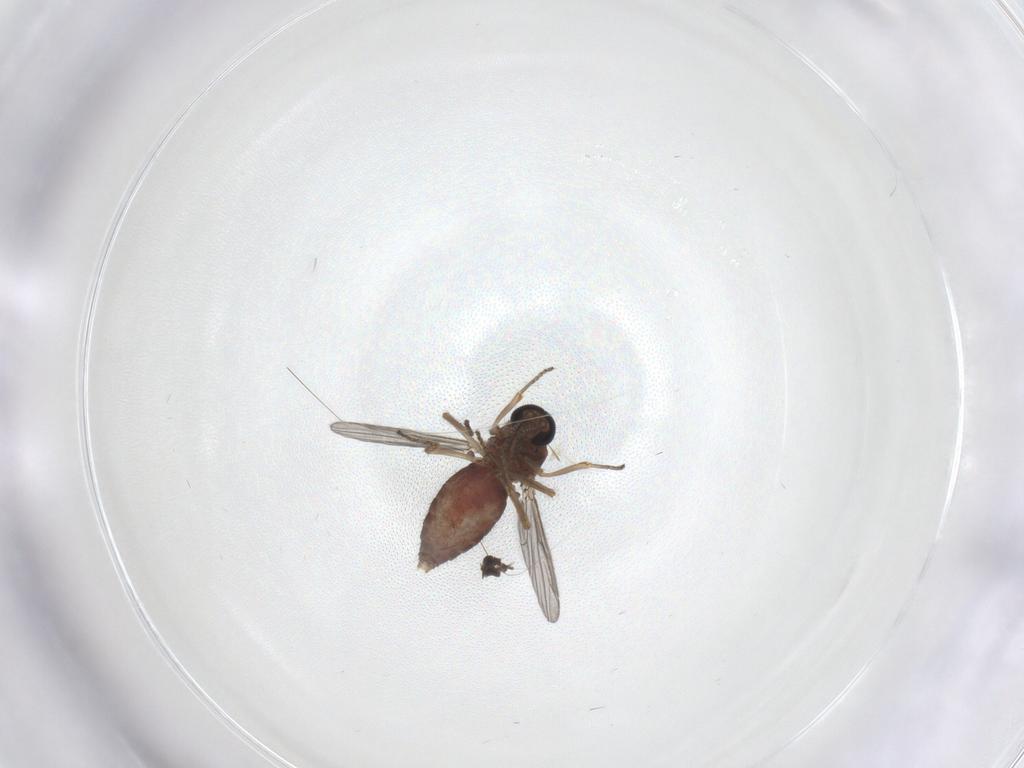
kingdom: Animalia
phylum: Arthropoda
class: Insecta
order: Diptera
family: Ceratopogonidae
